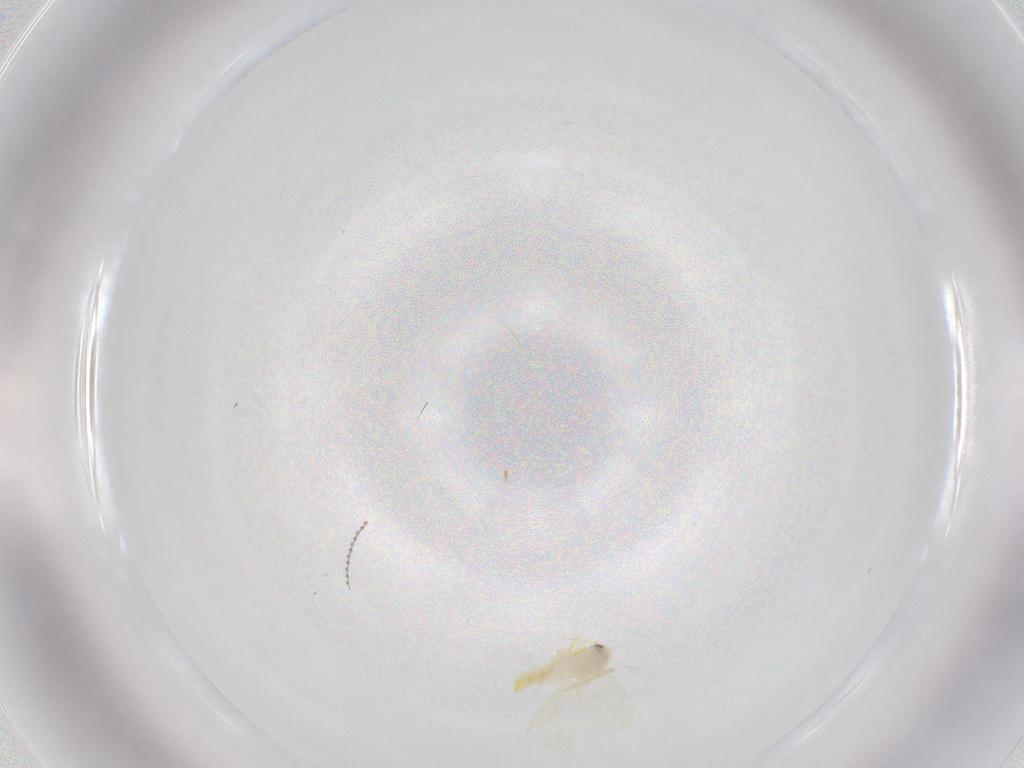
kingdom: Animalia
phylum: Arthropoda
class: Insecta
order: Hemiptera
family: Aleyrodidae
